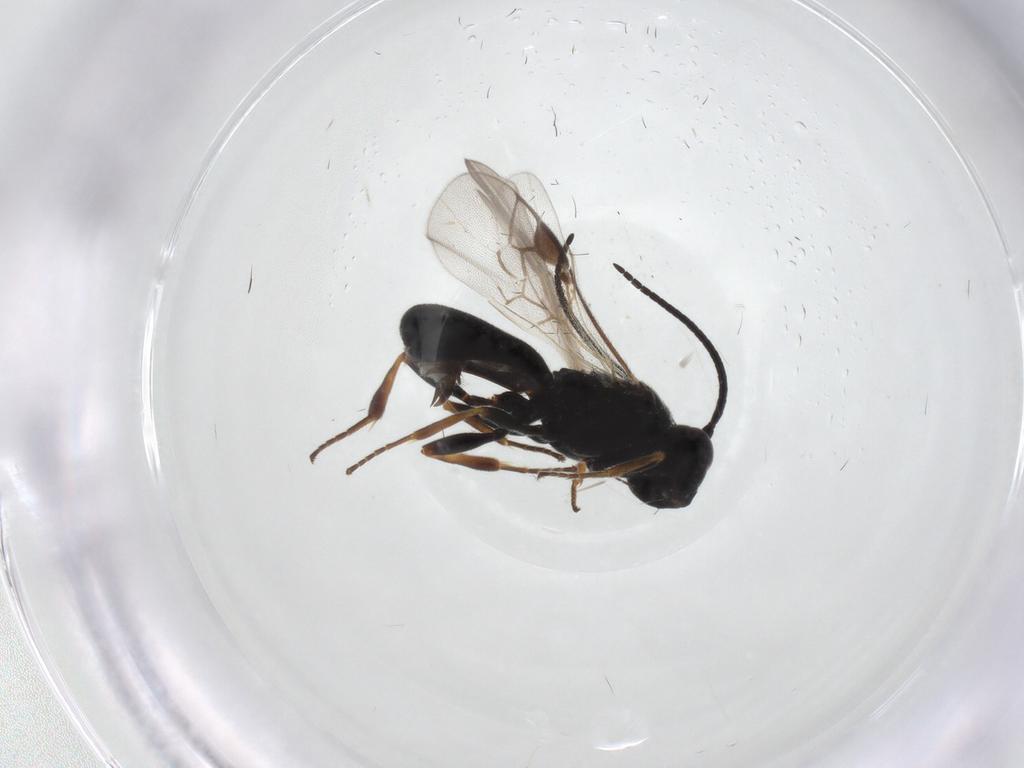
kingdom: Animalia
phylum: Arthropoda
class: Insecta
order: Hymenoptera
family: Braconidae
